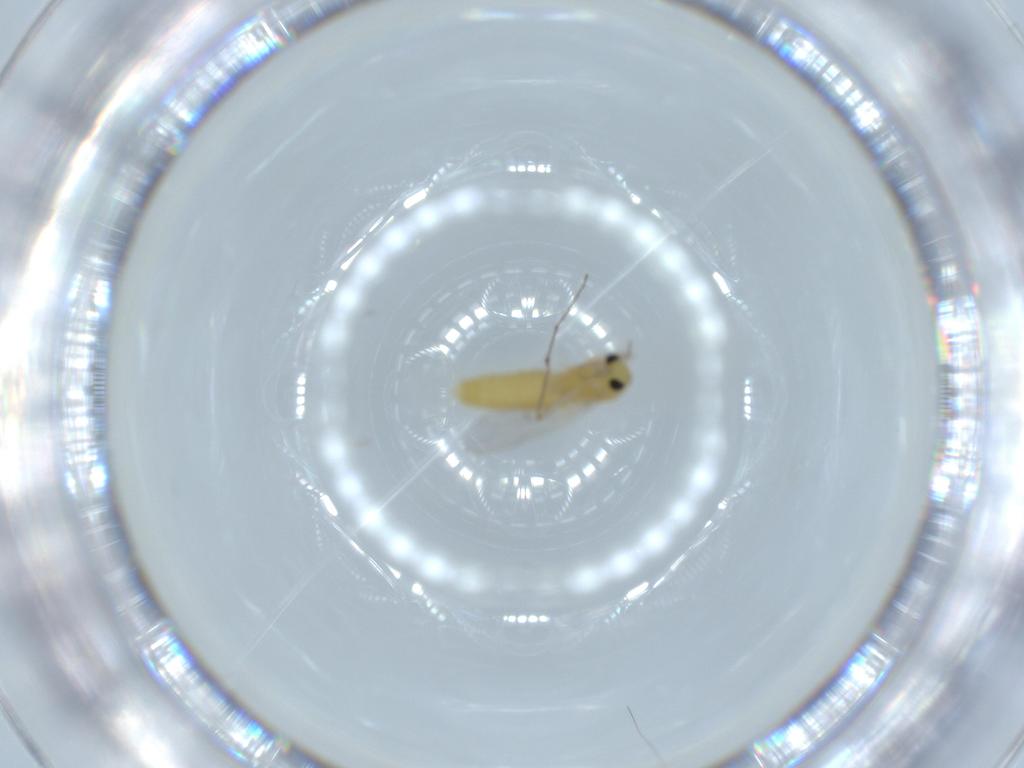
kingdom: Animalia
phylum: Arthropoda
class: Insecta
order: Diptera
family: Chironomidae
